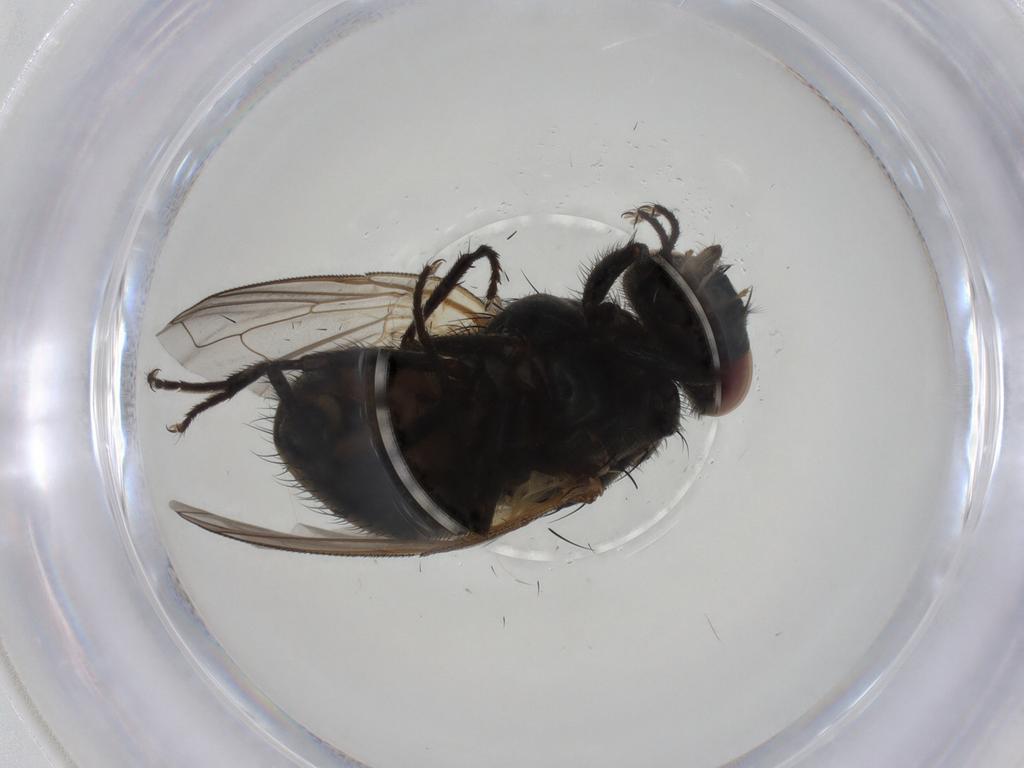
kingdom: Animalia
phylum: Arthropoda
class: Insecta
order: Diptera
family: Muscidae
